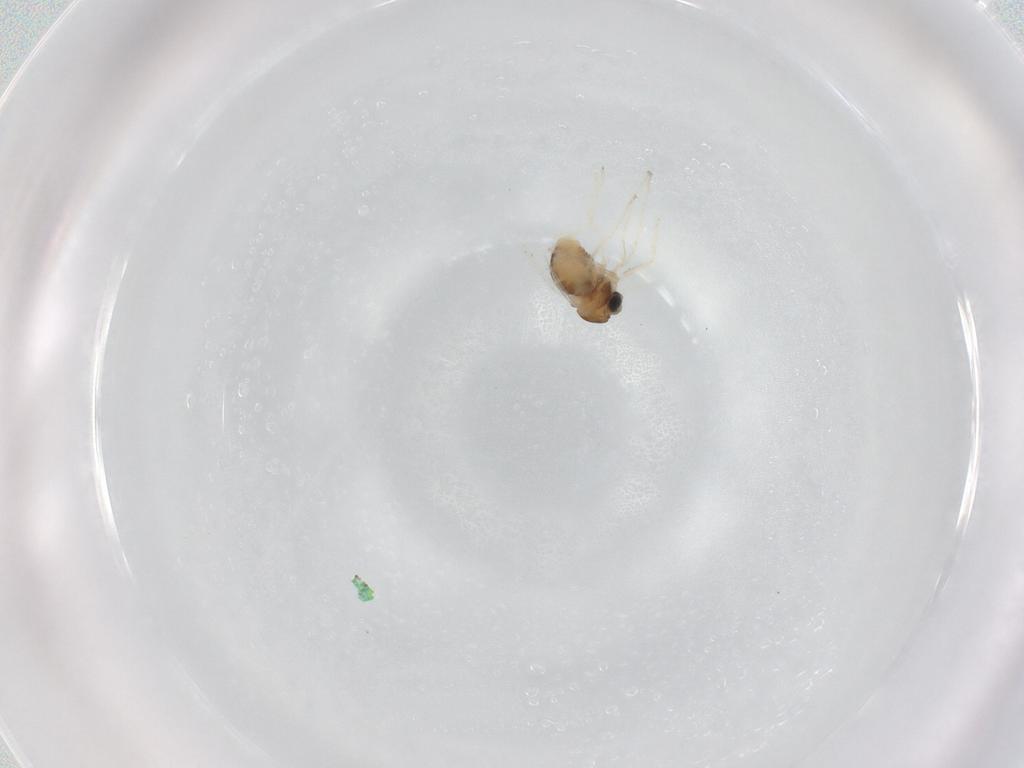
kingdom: Animalia
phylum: Arthropoda
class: Insecta
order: Diptera
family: Cecidomyiidae
